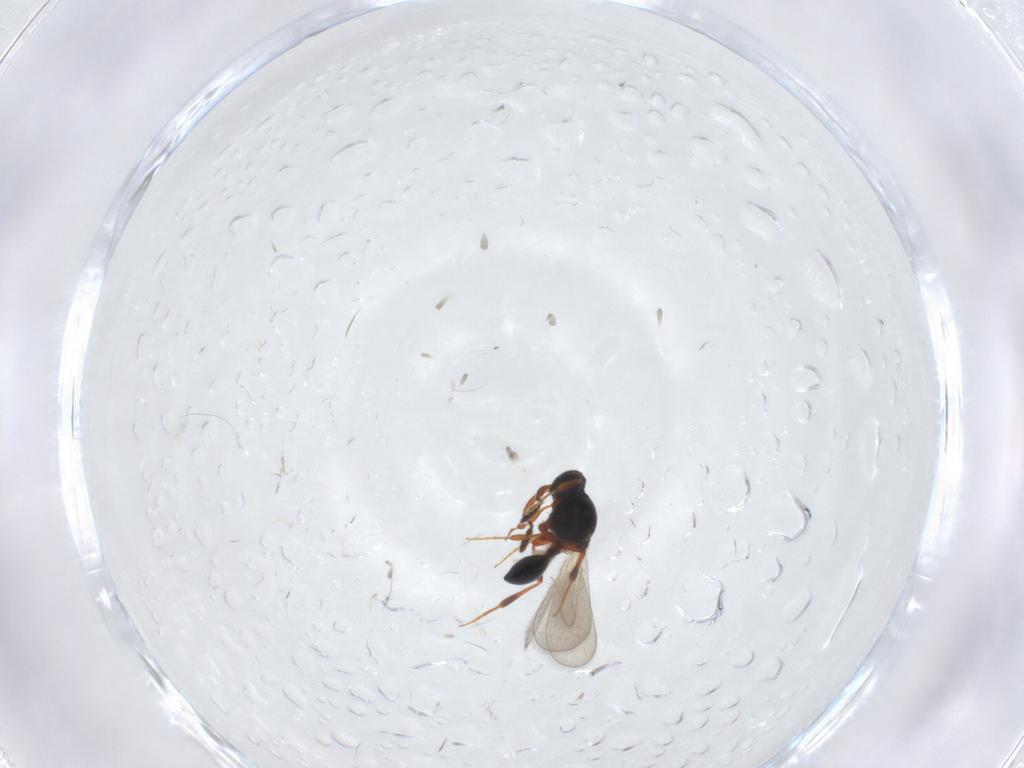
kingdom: Animalia
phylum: Arthropoda
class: Insecta
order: Hymenoptera
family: Platygastridae
